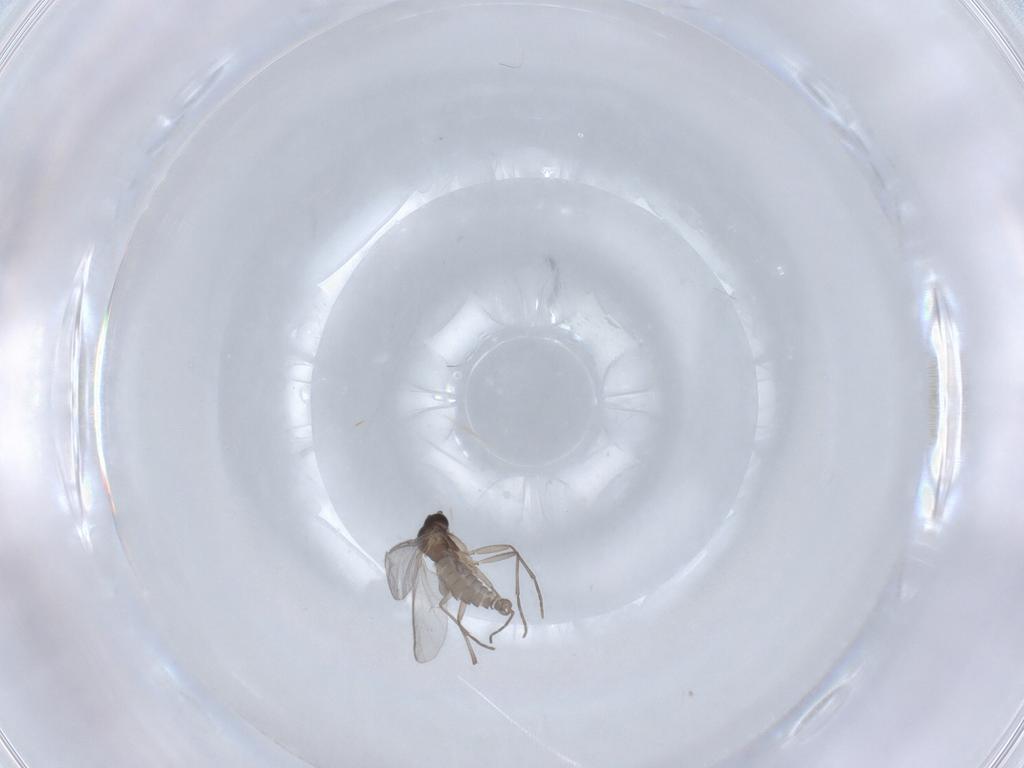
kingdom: Animalia
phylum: Arthropoda
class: Insecta
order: Diptera
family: Sciaridae
